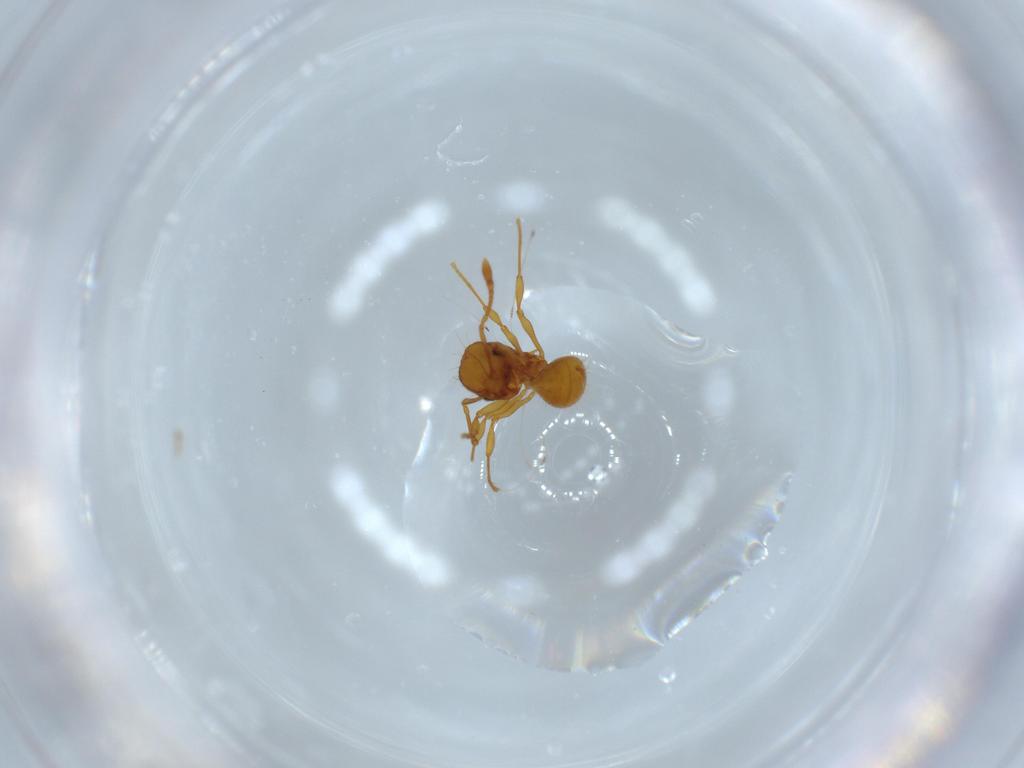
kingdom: Animalia
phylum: Arthropoda
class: Insecta
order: Hymenoptera
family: Formicidae
